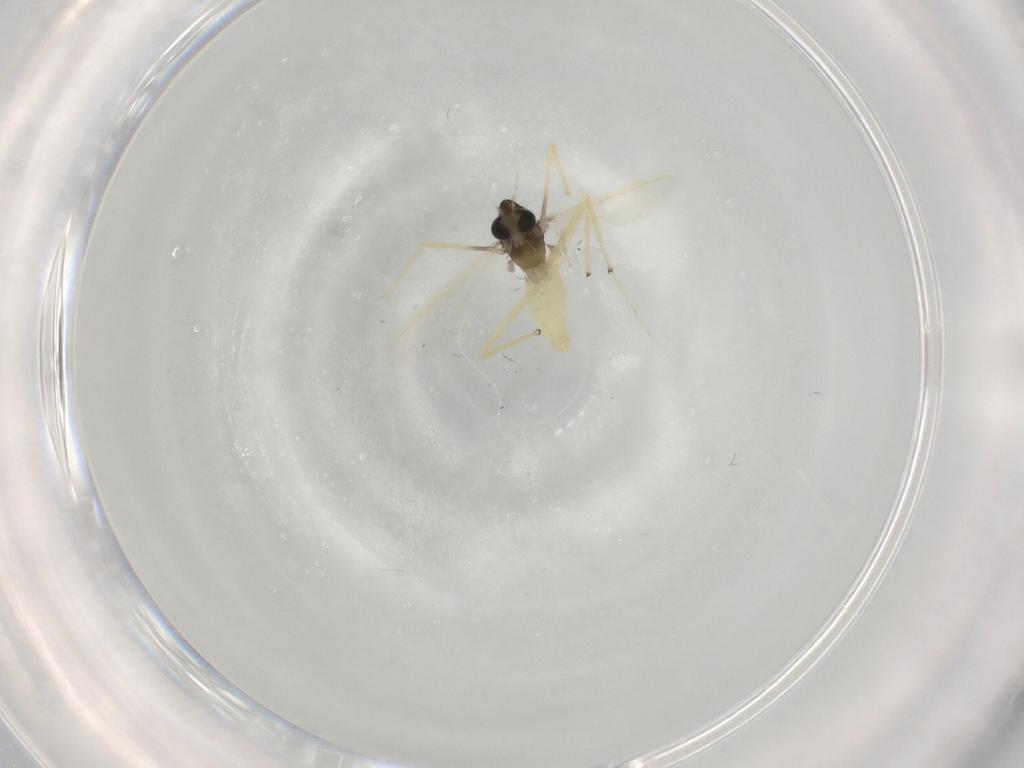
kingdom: Animalia
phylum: Arthropoda
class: Insecta
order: Diptera
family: Chironomidae
